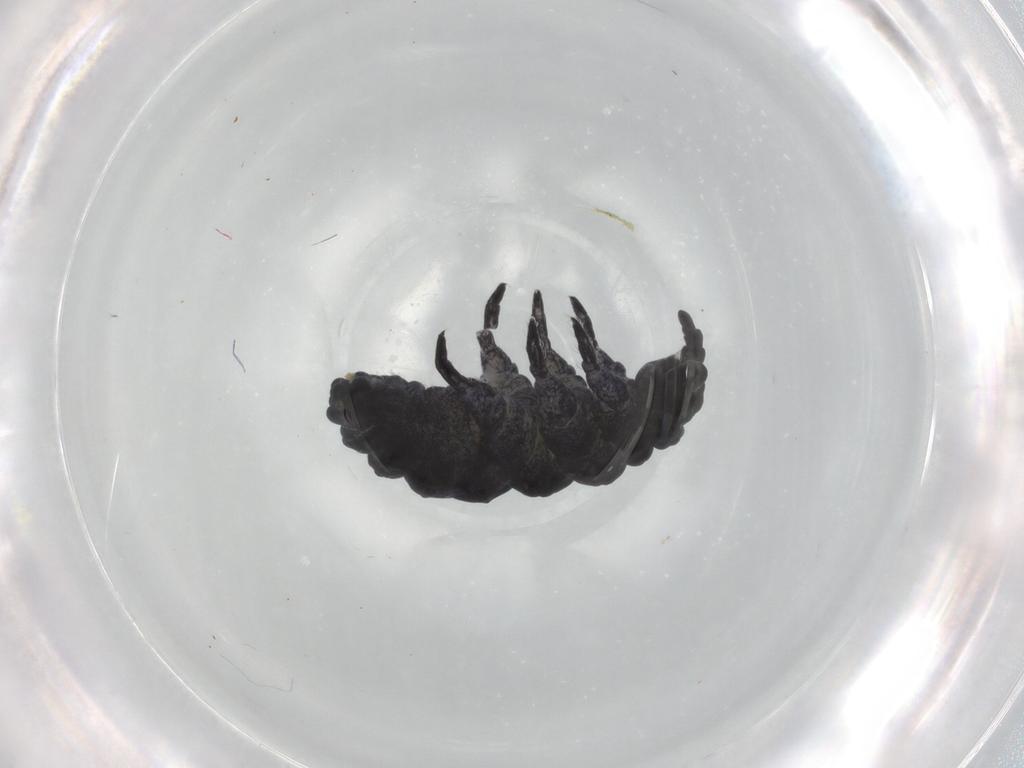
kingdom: Animalia
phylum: Arthropoda
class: Collembola
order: Poduromorpha
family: Neanuridae
